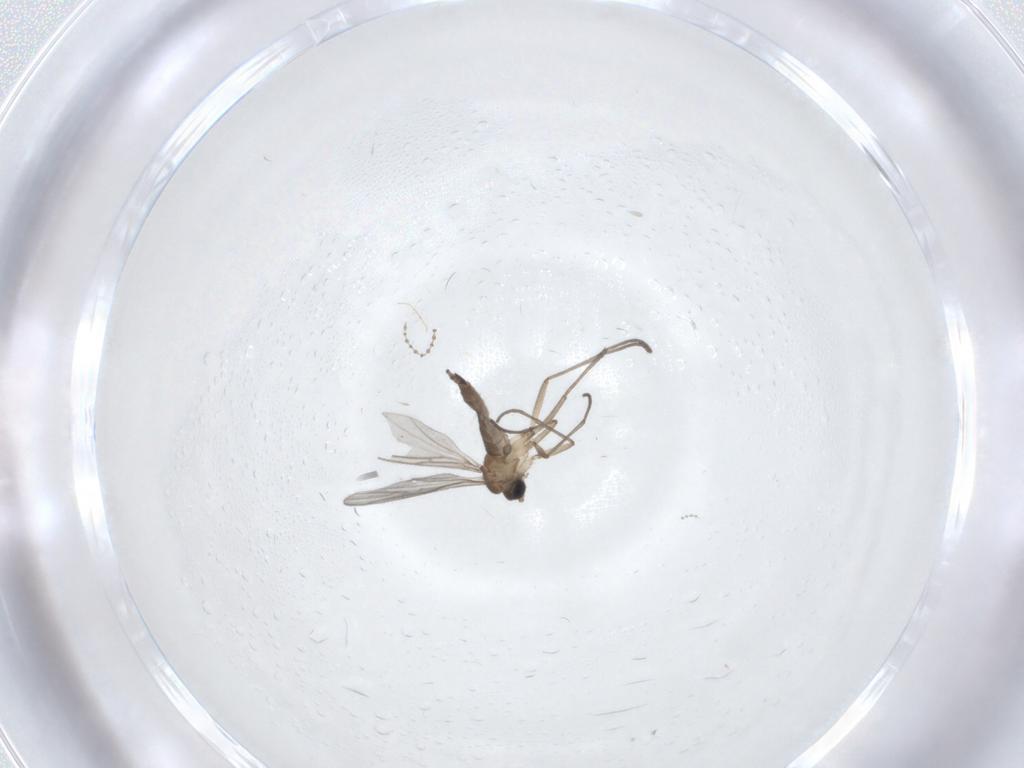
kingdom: Animalia
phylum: Arthropoda
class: Insecta
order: Diptera
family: Sciaridae
